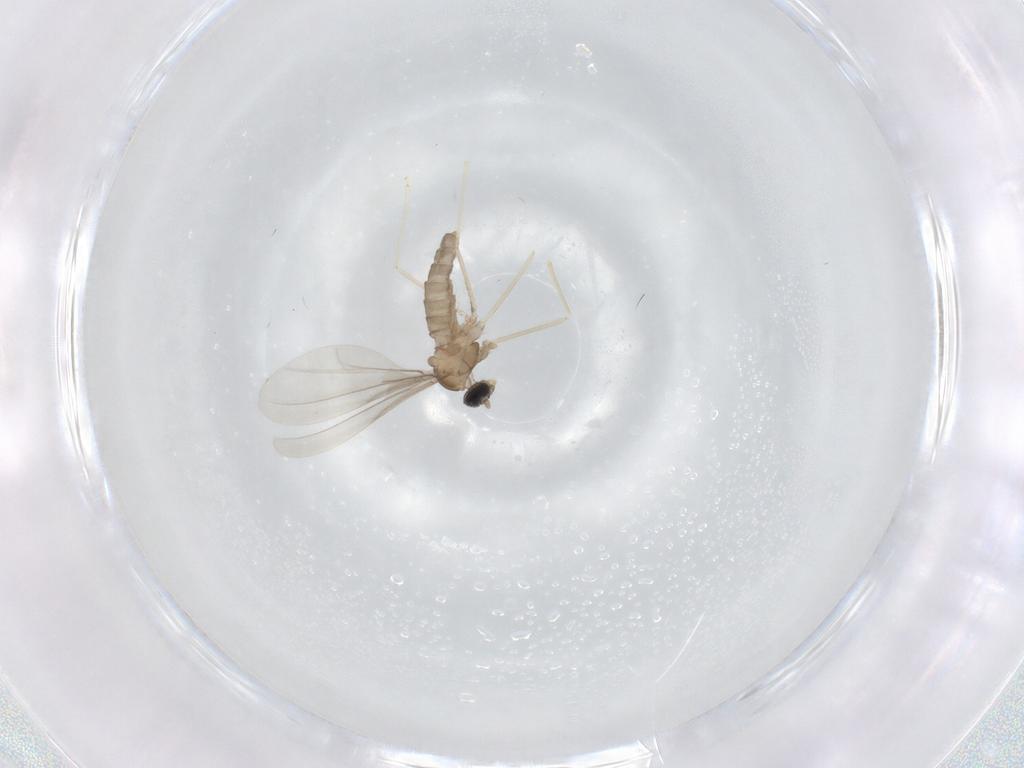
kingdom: Animalia
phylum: Arthropoda
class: Insecta
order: Diptera
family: Cecidomyiidae
